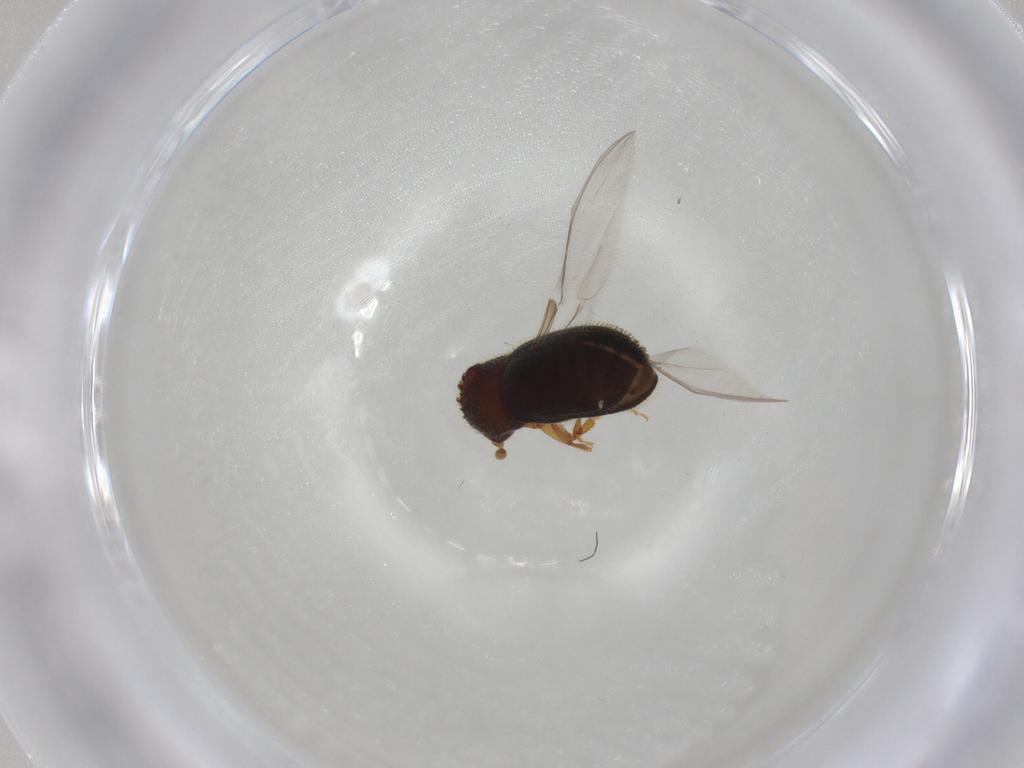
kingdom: Animalia
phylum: Arthropoda
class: Insecta
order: Coleoptera
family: Curculionidae
